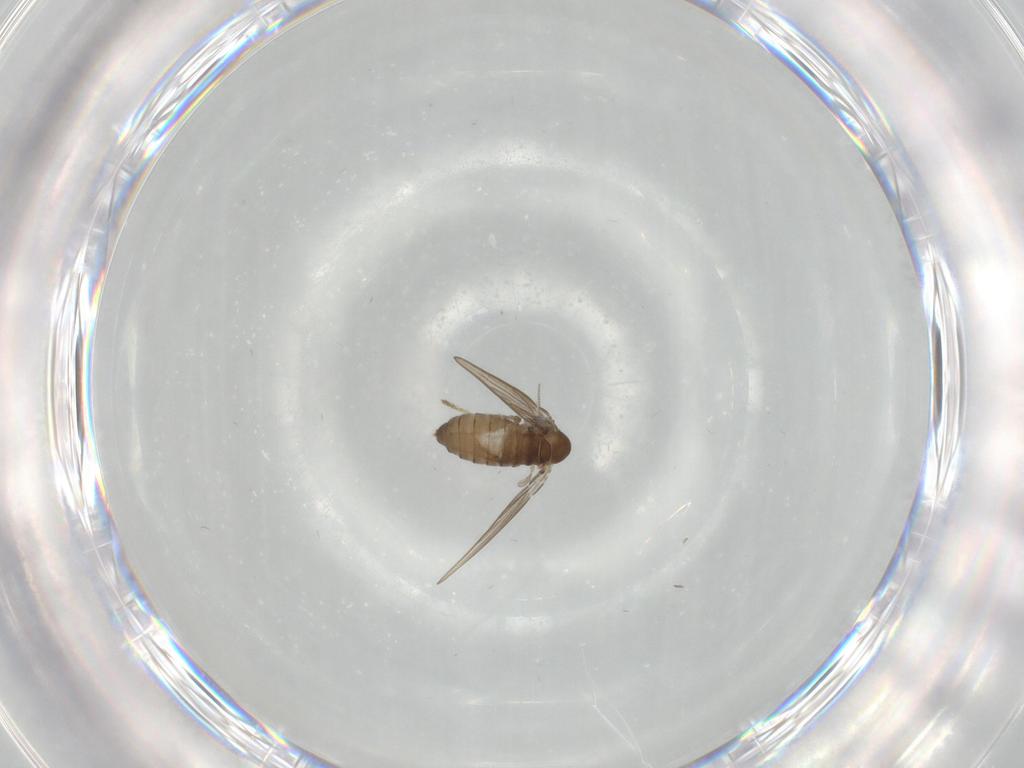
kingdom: Animalia
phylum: Arthropoda
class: Insecta
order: Diptera
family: Psychodidae
